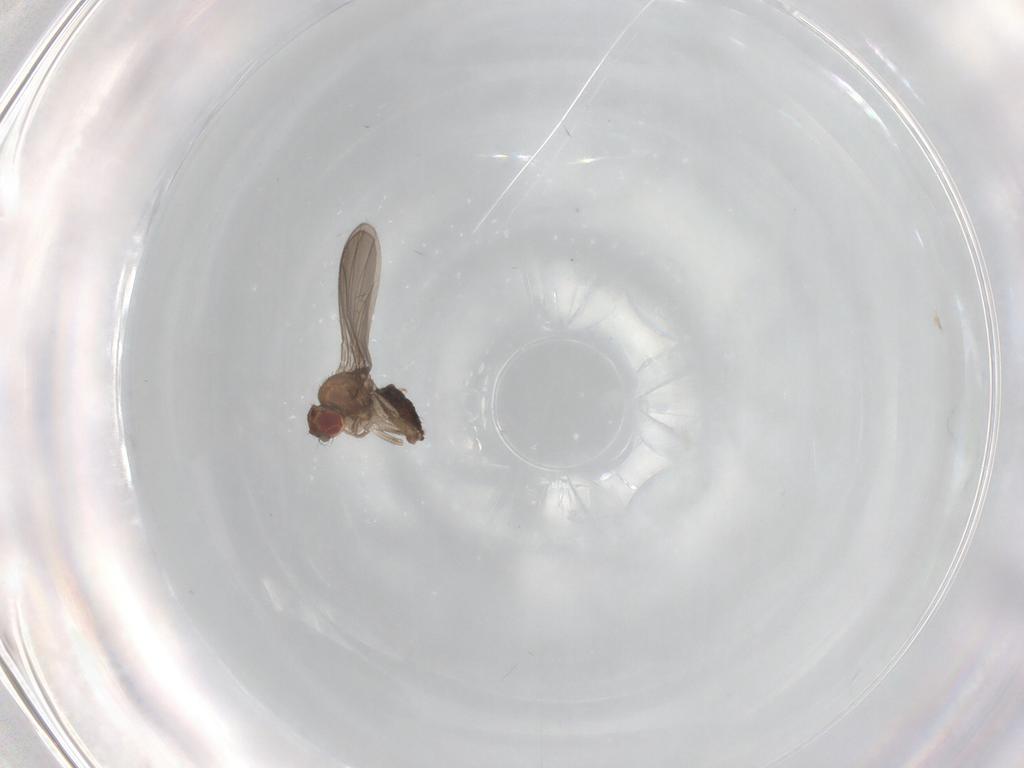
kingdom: Animalia
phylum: Arthropoda
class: Insecta
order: Diptera
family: Drosophilidae
